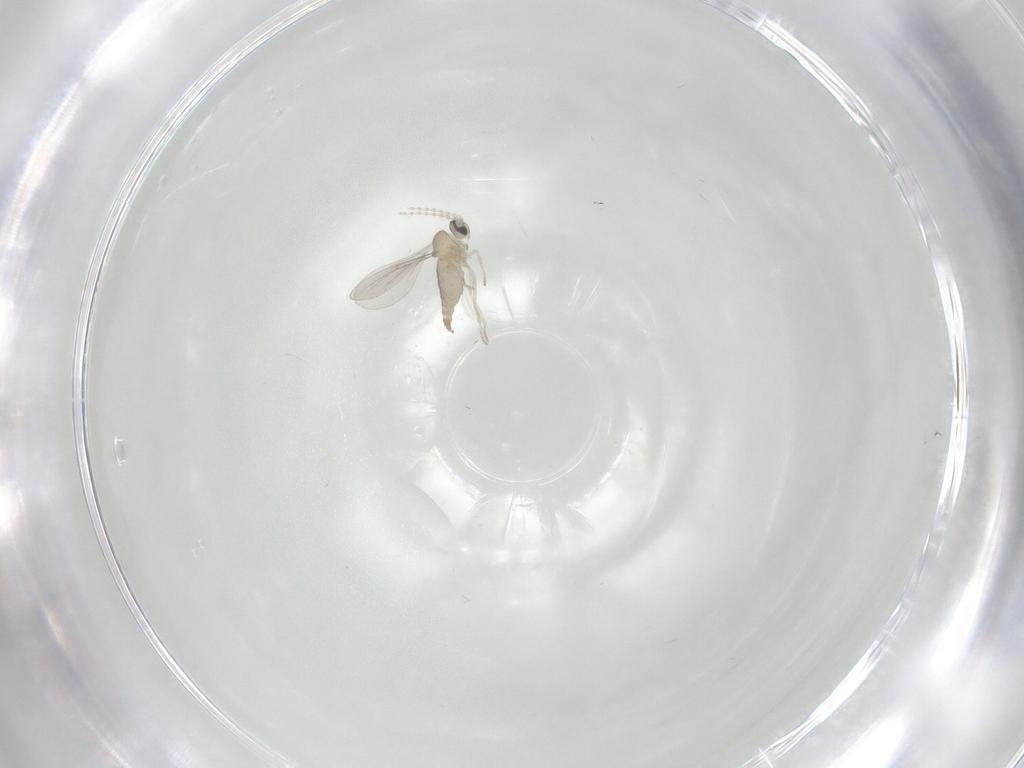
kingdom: Animalia
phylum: Arthropoda
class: Insecta
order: Diptera
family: Cecidomyiidae
